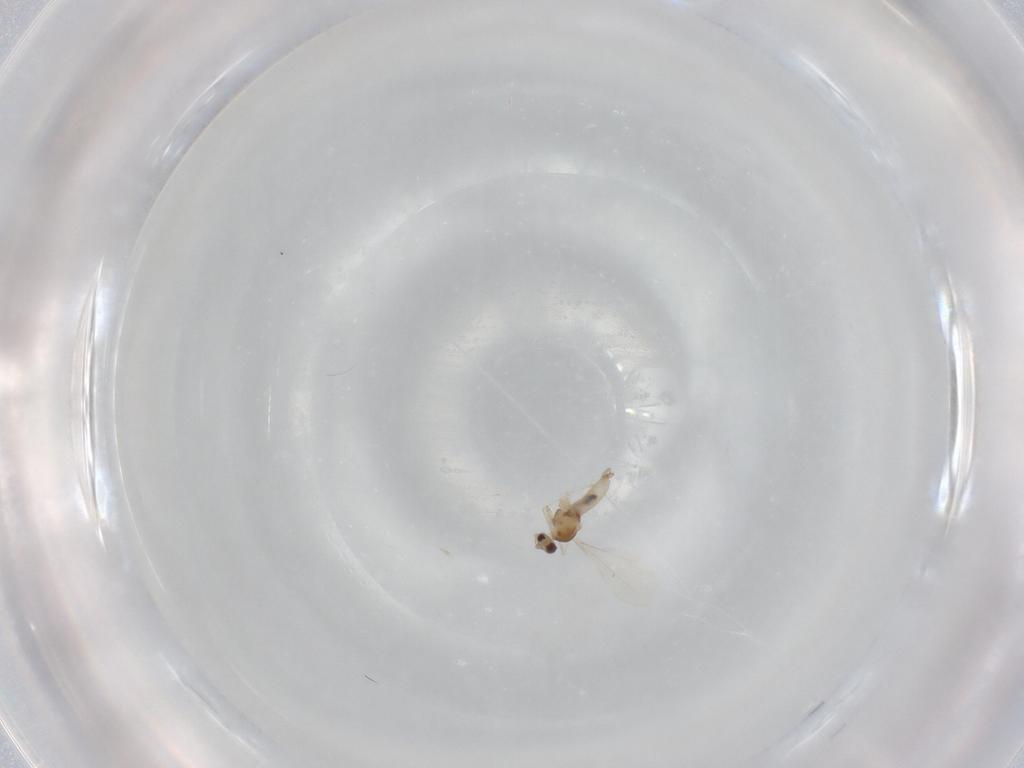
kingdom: Animalia
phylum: Arthropoda
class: Insecta
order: Diptera
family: Cecidomyiidae
